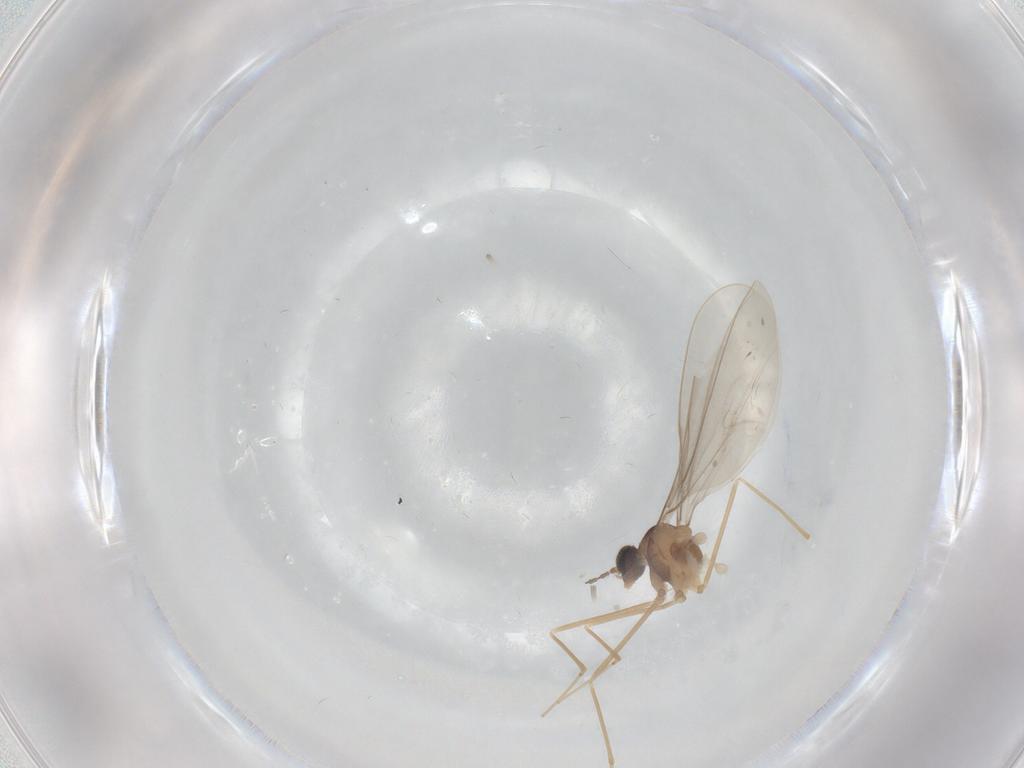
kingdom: Animalia
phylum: Arthropoda
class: Insecta
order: Diptera
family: Cecidomyiidae
